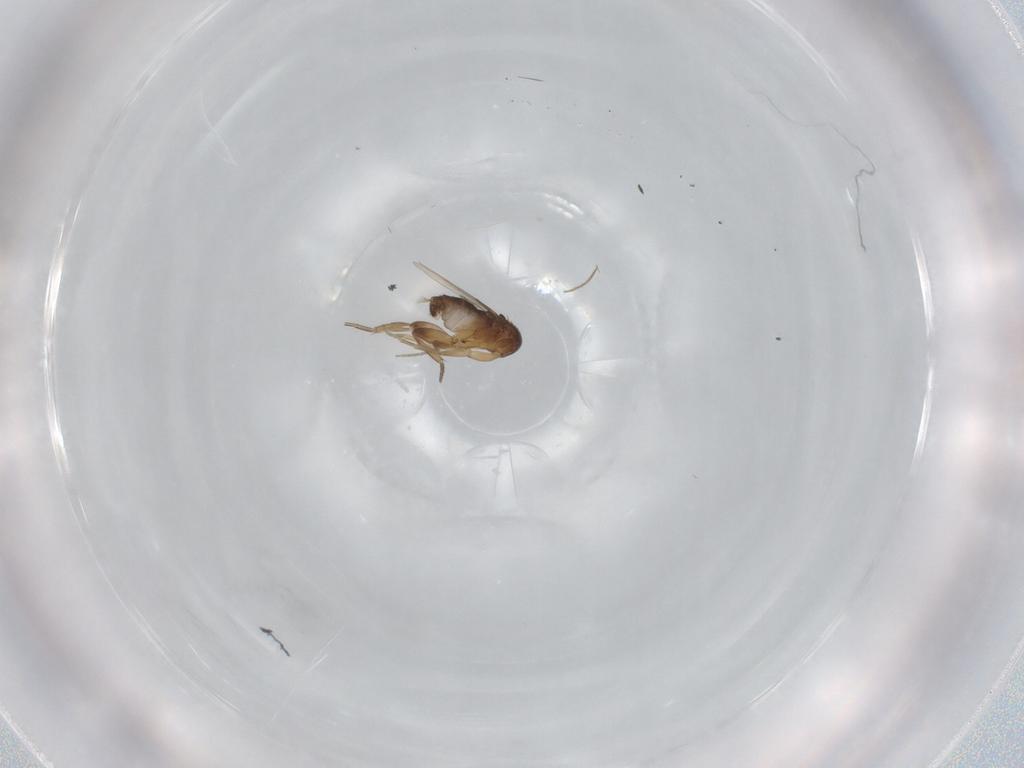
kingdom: Animalia
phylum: Arthropoda
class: Insecta
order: Diptera
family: Phoridae
